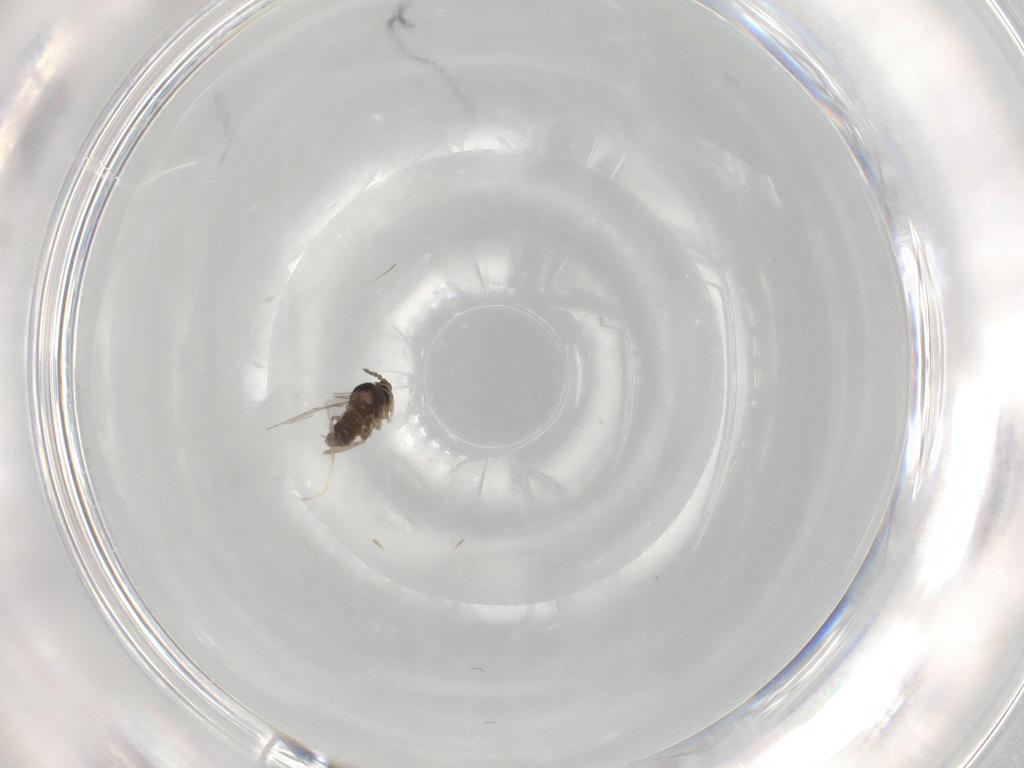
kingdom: Animalia
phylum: Arthropoda
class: Insecta
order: Diptera
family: Cecidomyiidae
